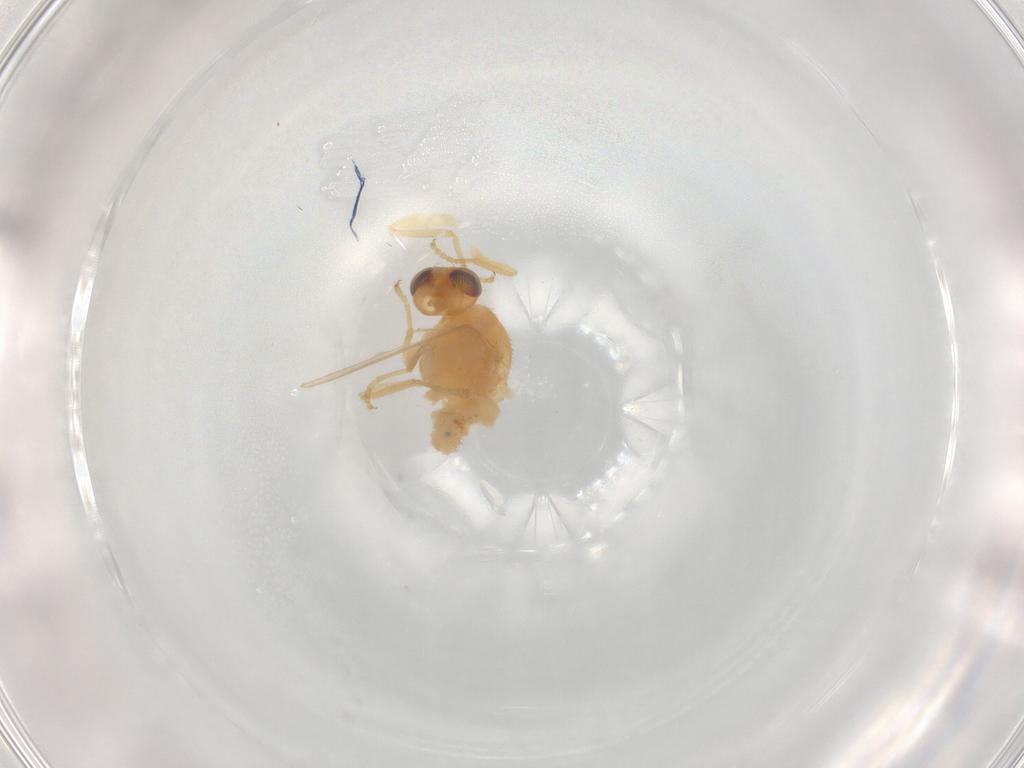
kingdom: Animalia
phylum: Arthropoda
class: Insecta
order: Diptera
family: Chyromyidae
